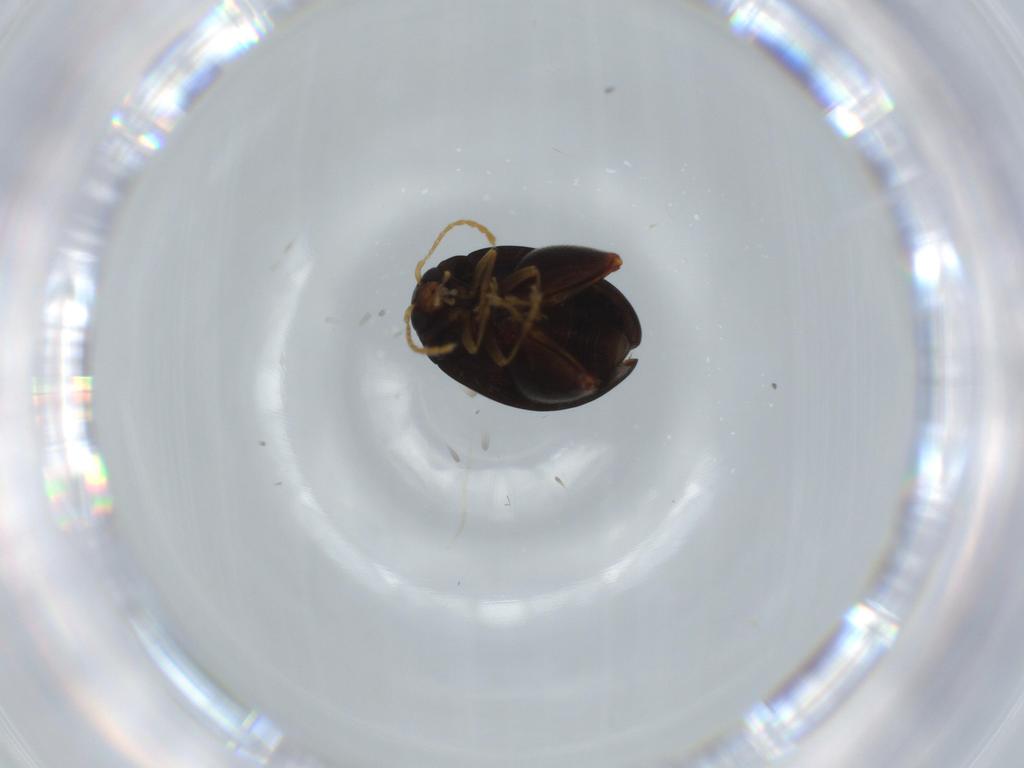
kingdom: Animalia
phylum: Arthropoda
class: Insecta
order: Coleoptera
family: Chrysomelidae
